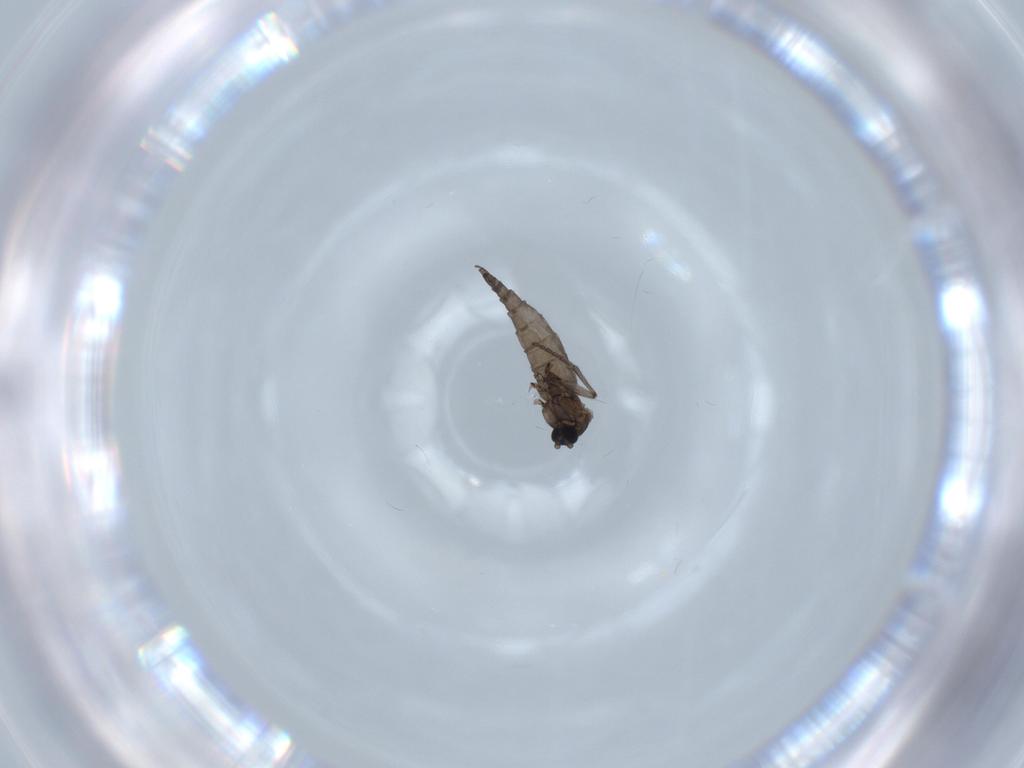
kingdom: Animalia
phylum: Arthropoda
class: Insecta
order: Diptera
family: Sciaridae
